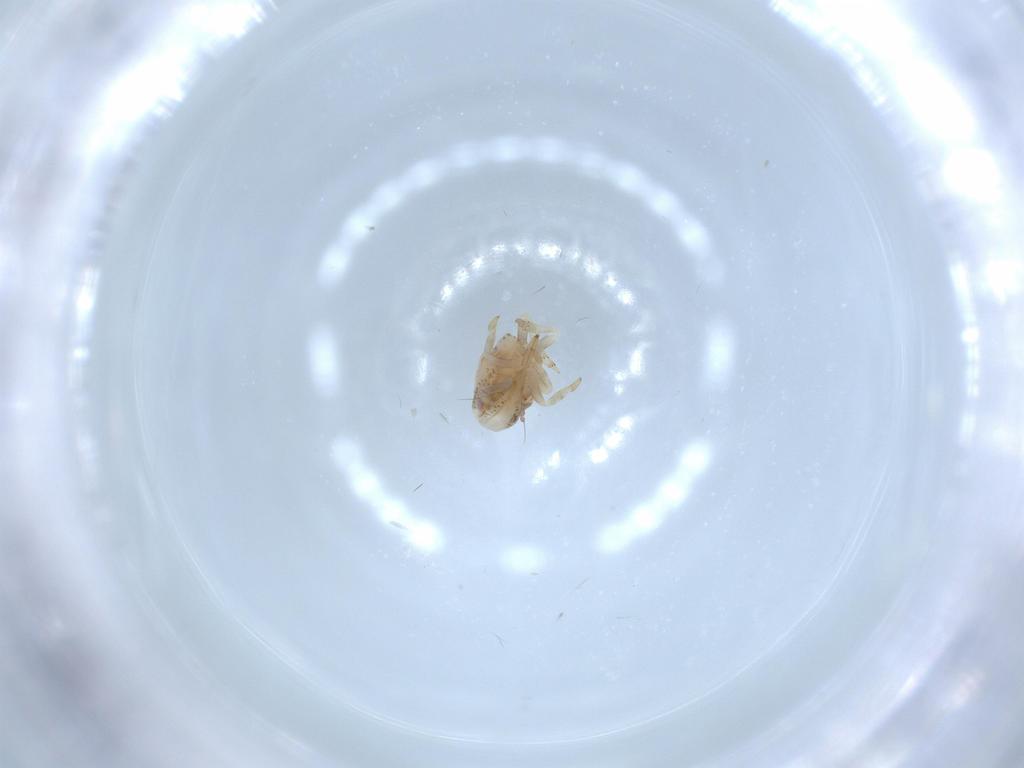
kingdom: Animalia
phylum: Arthropoda
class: Insecta
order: Hemiptera
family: Acanaloniidae
